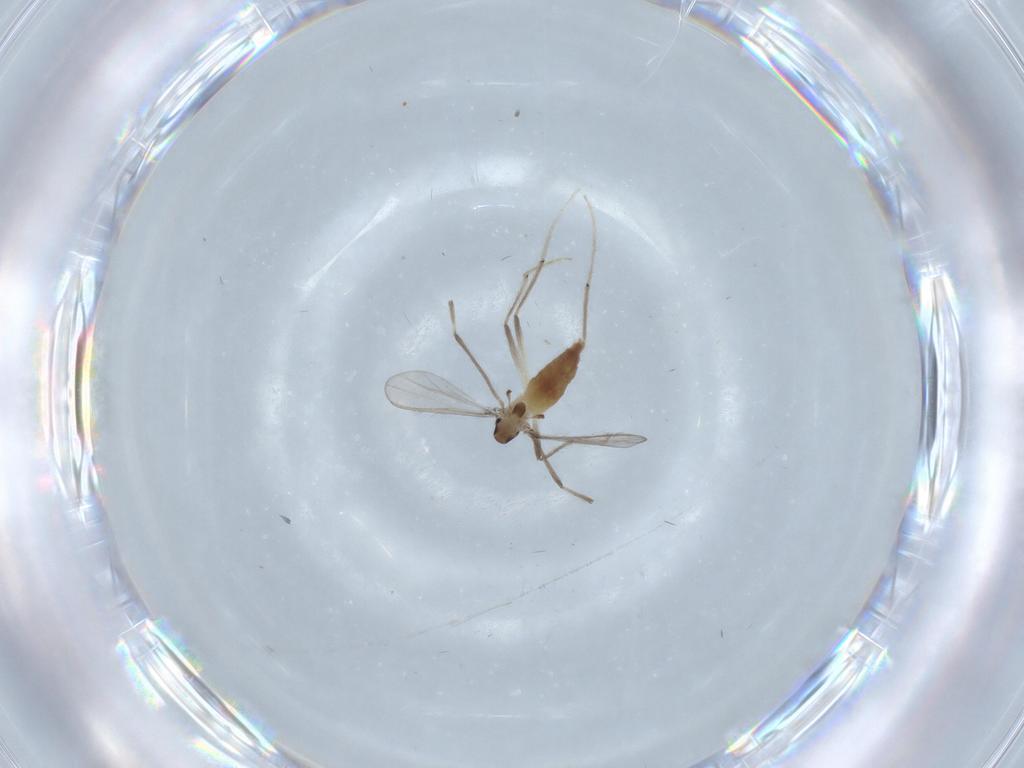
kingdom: Animalia
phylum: Arthropoda
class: Insecta
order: Diptera
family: Chironomidae
